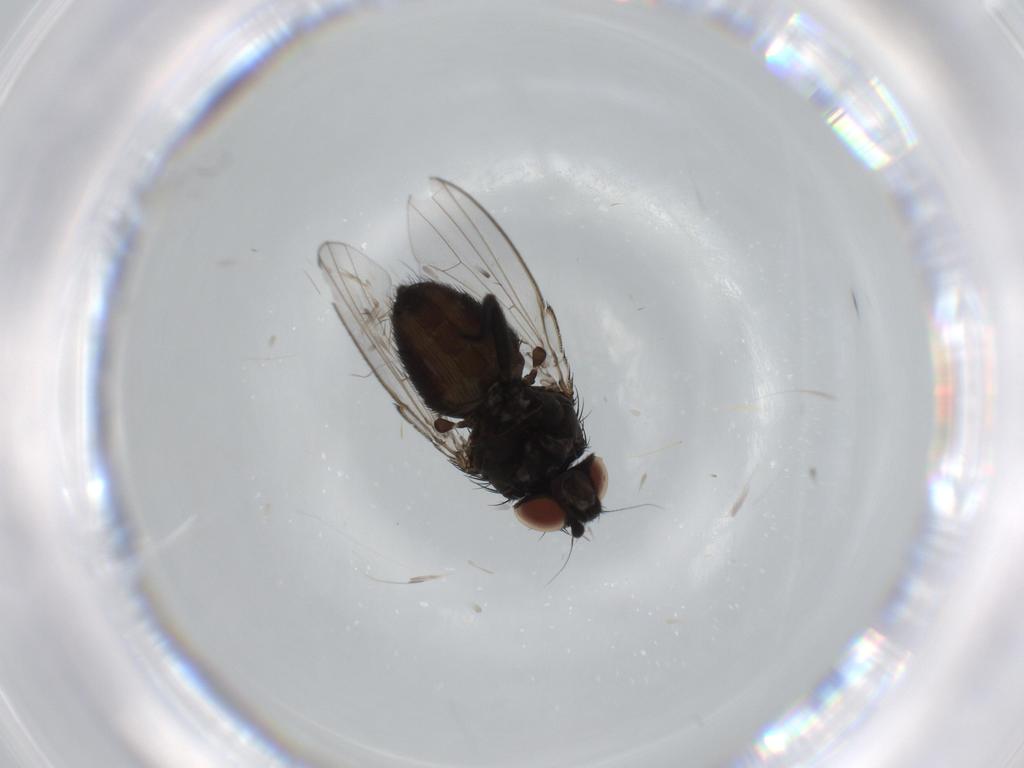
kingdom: Animalia
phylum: Arthropoda
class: Insecta
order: Diptera
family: Milichiidae
